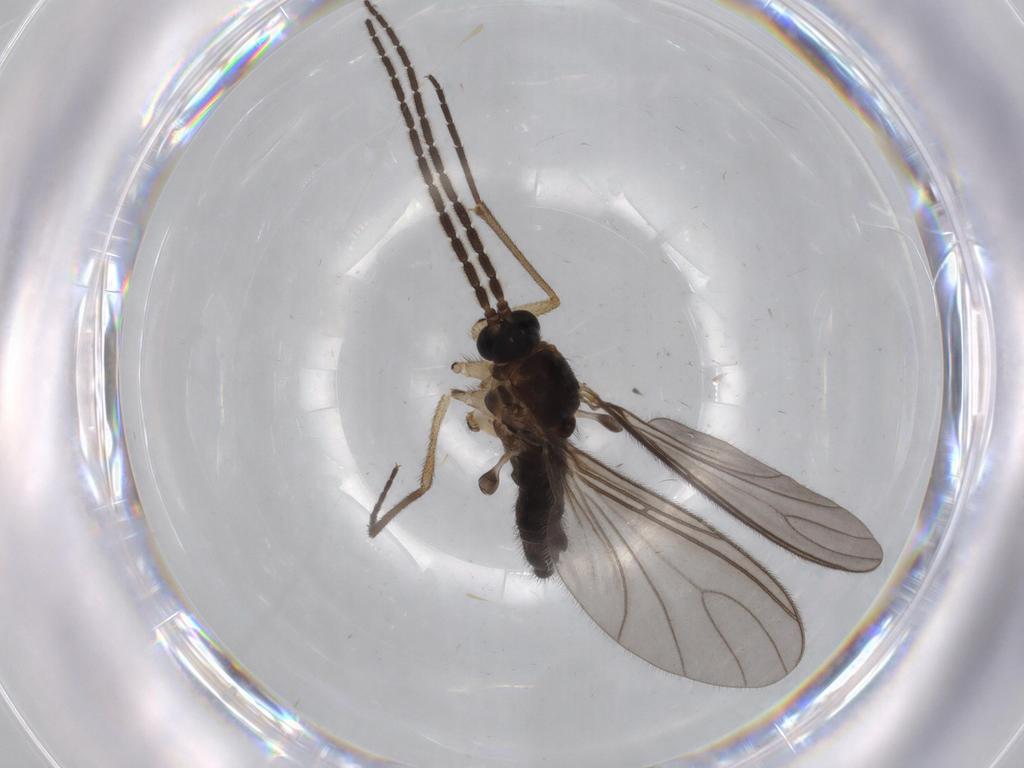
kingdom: Animalia
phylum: Arthropoda
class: Insecta
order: Diptera
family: Sciaridae
